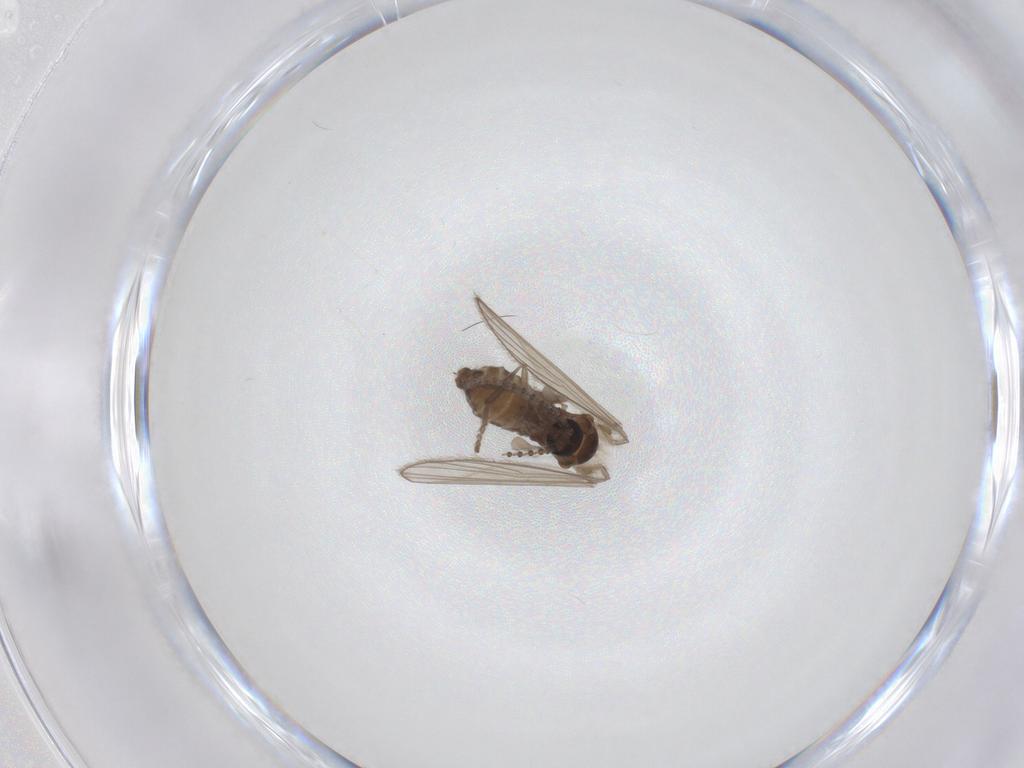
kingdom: Animalia
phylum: Arthropoda
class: Insecta
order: Diptera
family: Psychodidae
